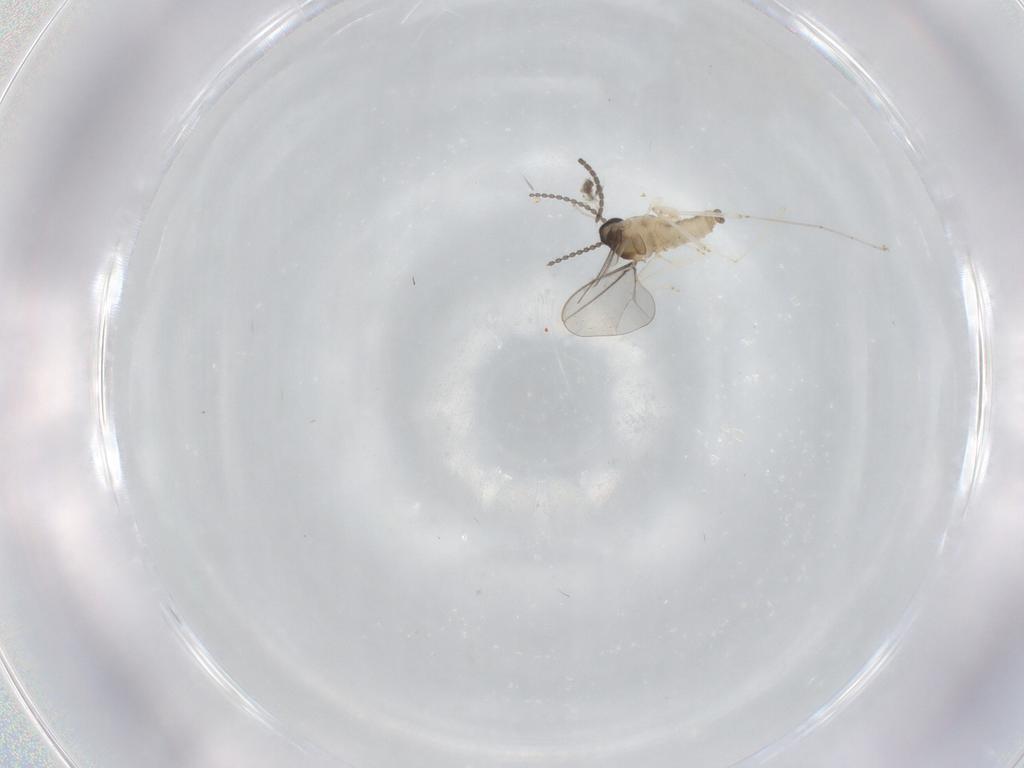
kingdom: Animalia
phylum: Arthropoda
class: Insecta
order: Diptera
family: Sciaridae
